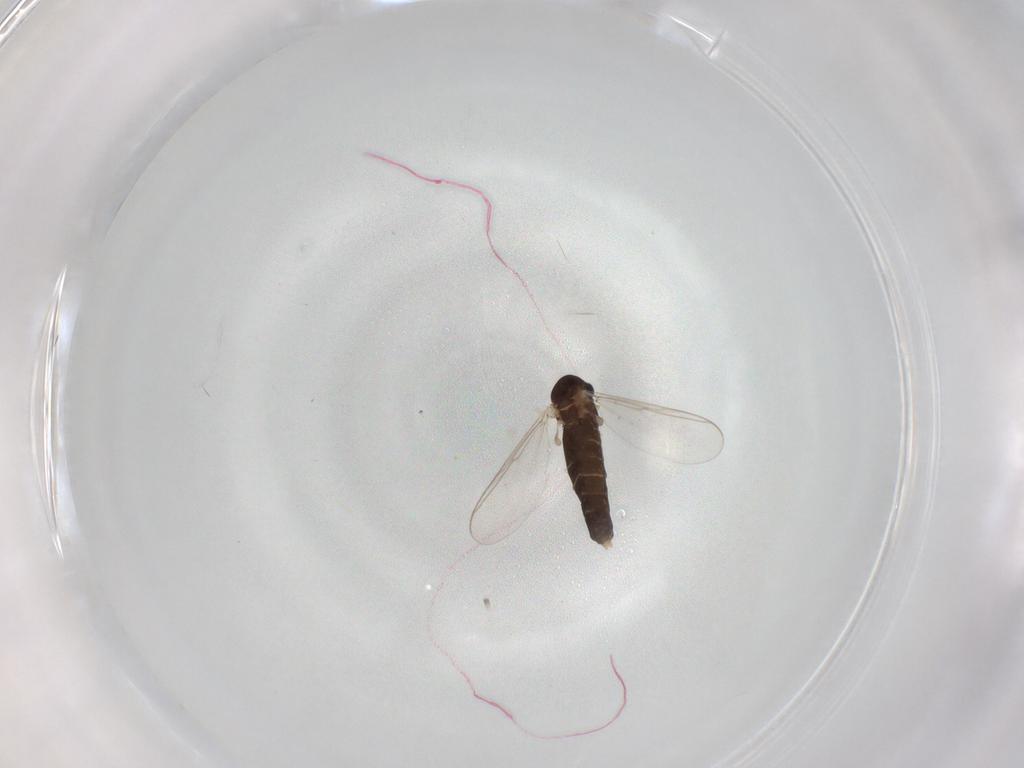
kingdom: Animalia
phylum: Arthropoda
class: Insecta
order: Diptera
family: Chironomidae
